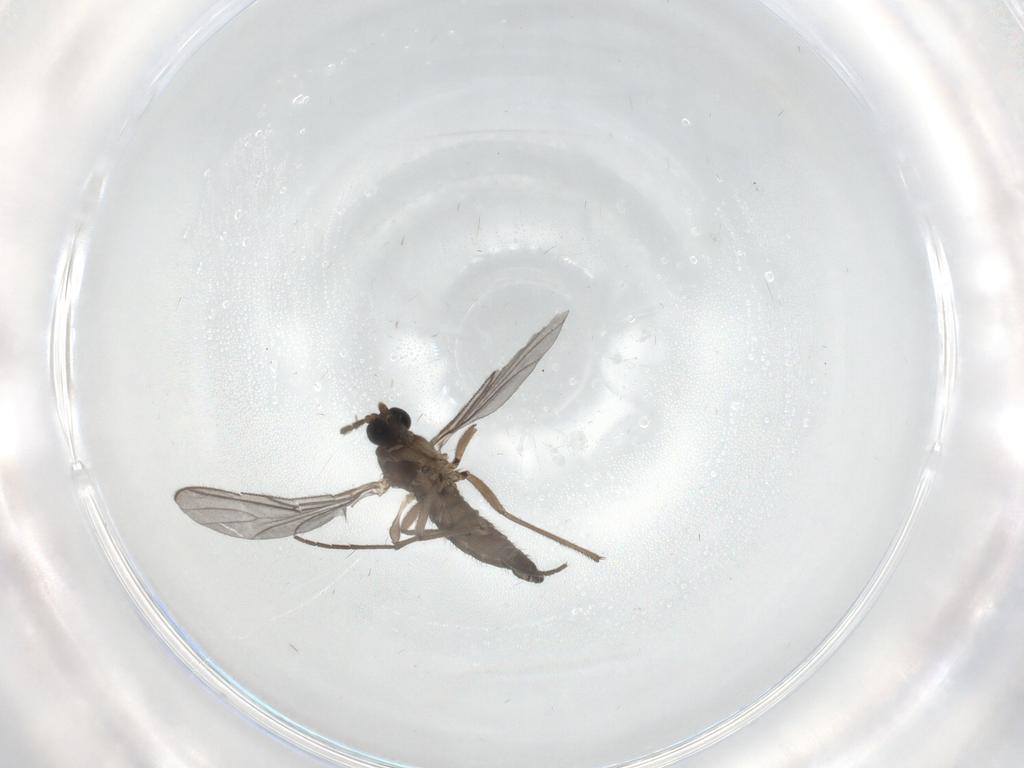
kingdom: Animalia
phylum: Arthropoda
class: Insecta
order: Diptera
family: Sciaridae
